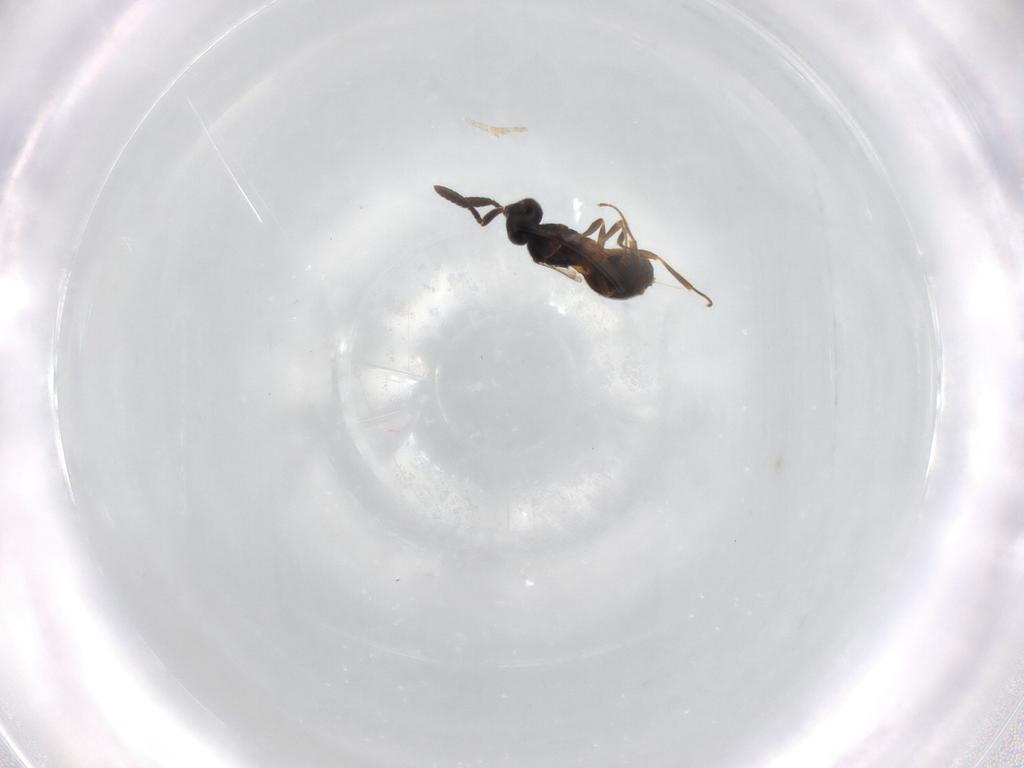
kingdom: Animalia
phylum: Arthropoda
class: Insecta
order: Hymenoptera
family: Scelionidae
